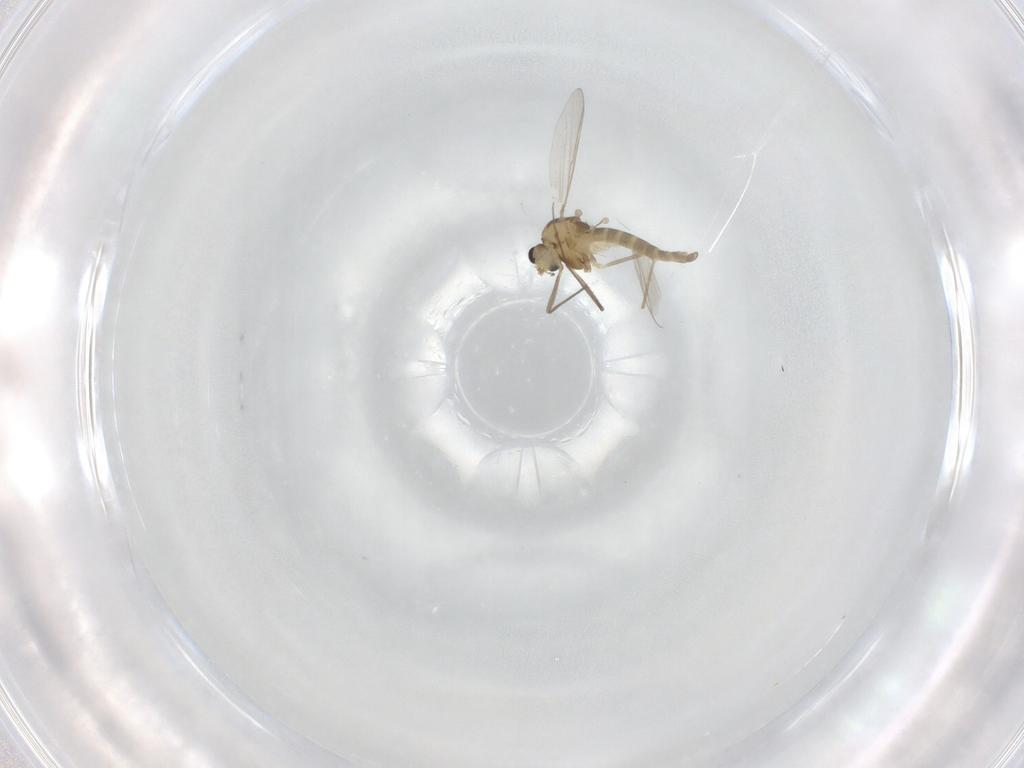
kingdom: Animalia
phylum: Arthropoda
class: Insecta
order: Diptera
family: Chironomidae
